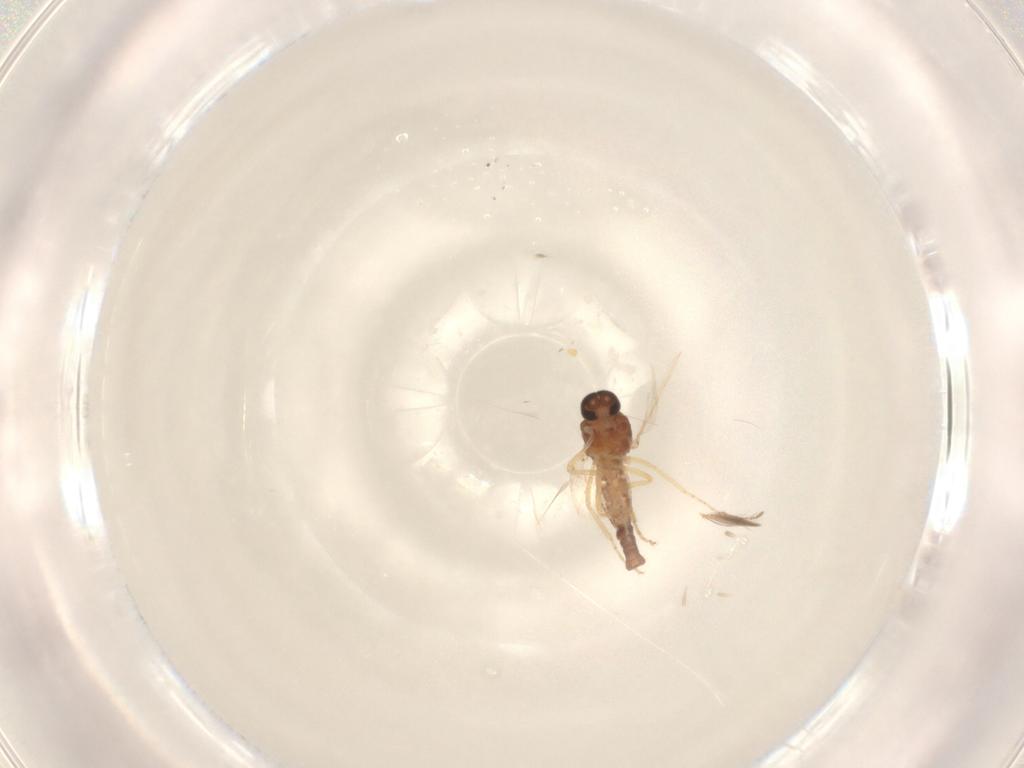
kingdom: Animalia
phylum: Arthropoda
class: Insecta
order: Diptera
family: Ceratopogonidae
